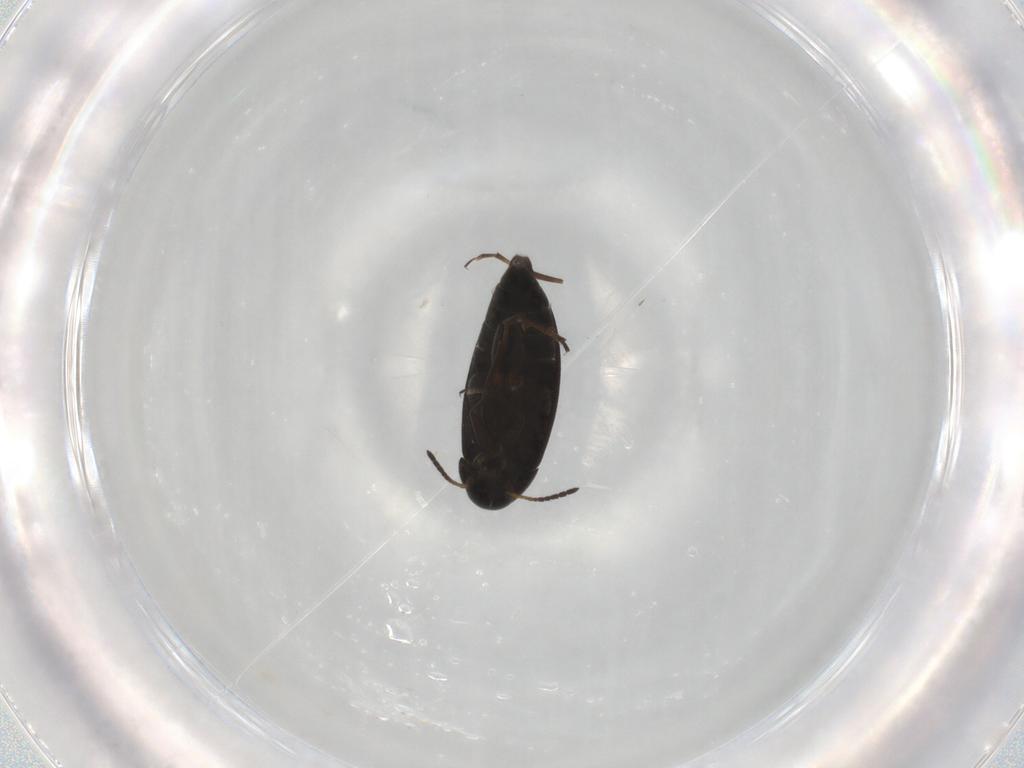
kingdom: Animalia
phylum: Arthropoda
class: Insecta
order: Coleoptera
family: Scraptiidae
